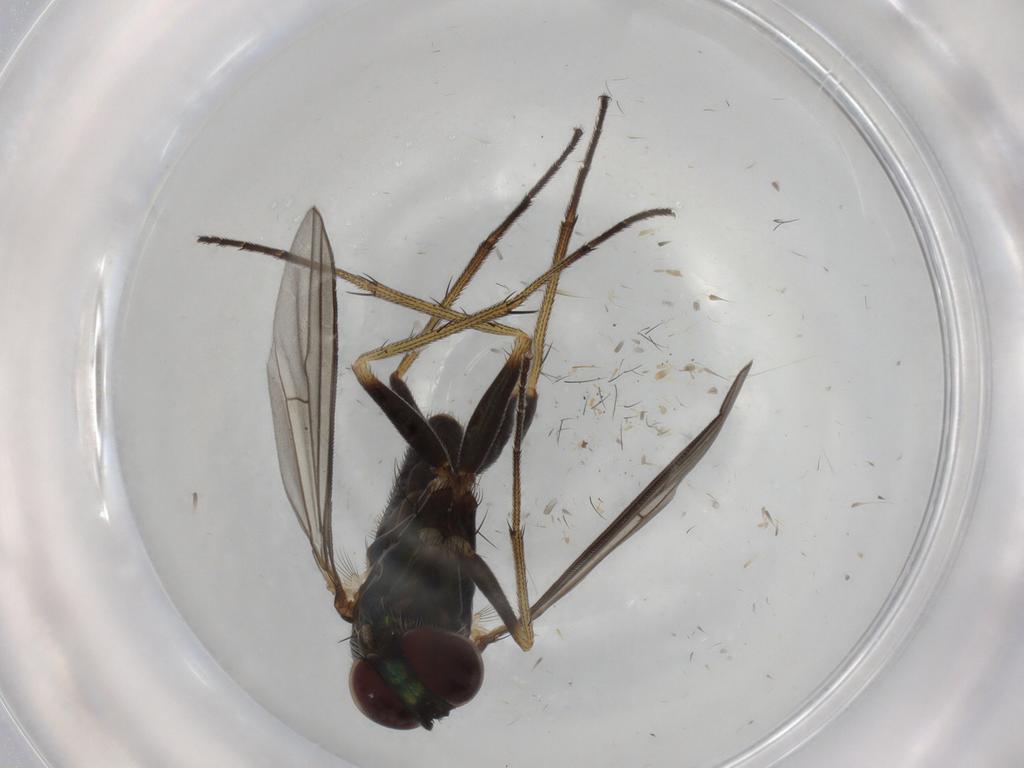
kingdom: Animalia
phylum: Arthropoda
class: Insecta
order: Diptera
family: Dolichopodidae
